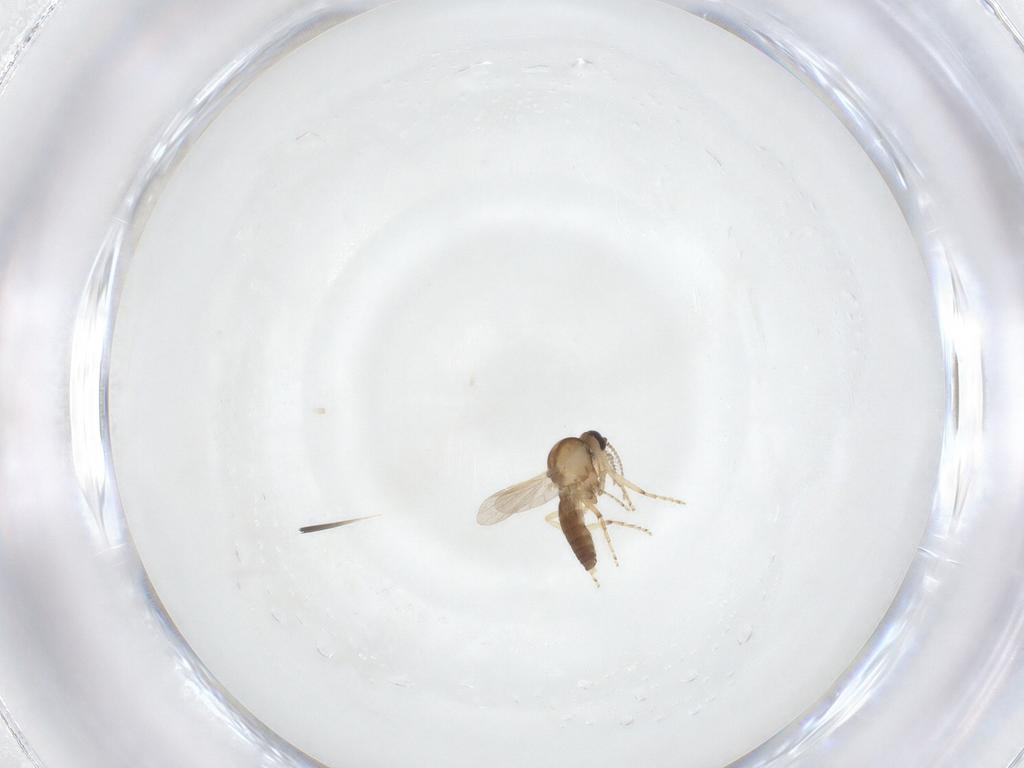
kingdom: Animalia
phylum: Arthropoda
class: Insecta
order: Diptera
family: Ceratopogonidae
